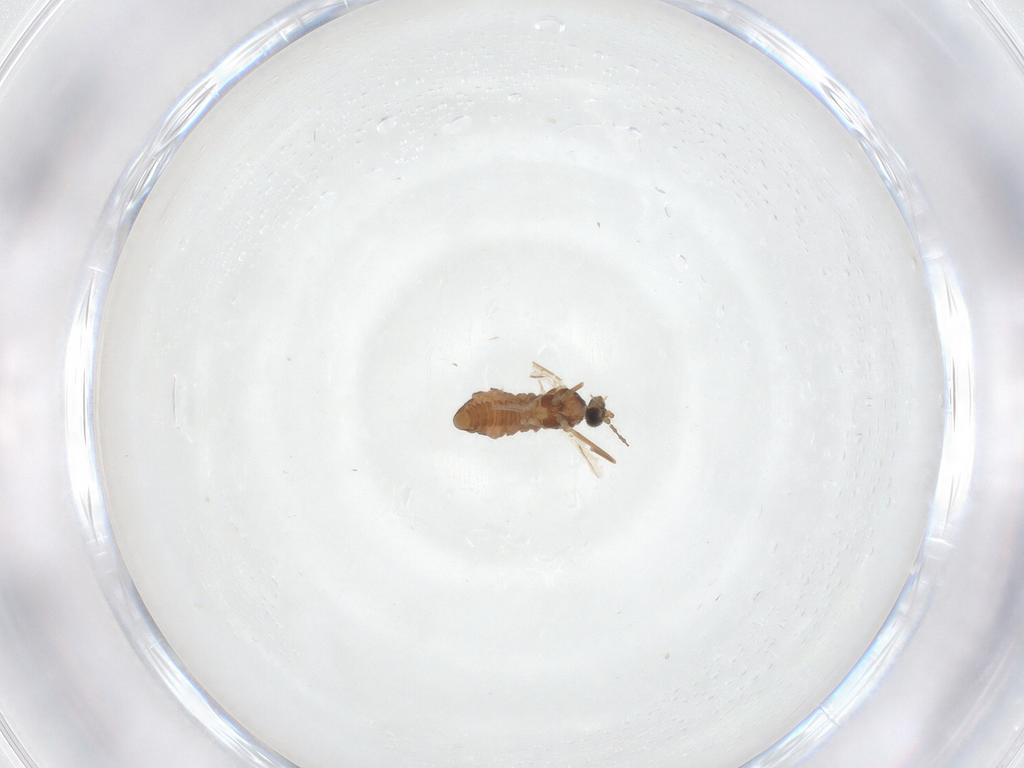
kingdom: Animalia
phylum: Arthropoda
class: Insecta
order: Diptera
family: Cecidomyiidae
